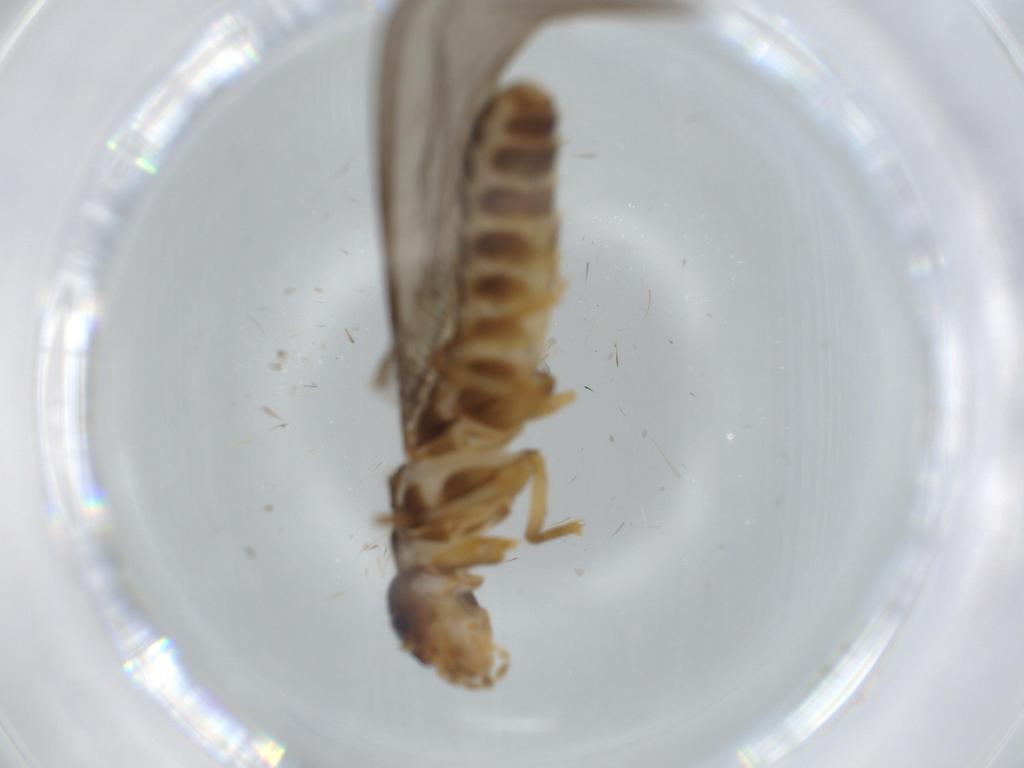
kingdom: Animalia
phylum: Arthropoda
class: Insecta
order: Blattodea
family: Termitidae
